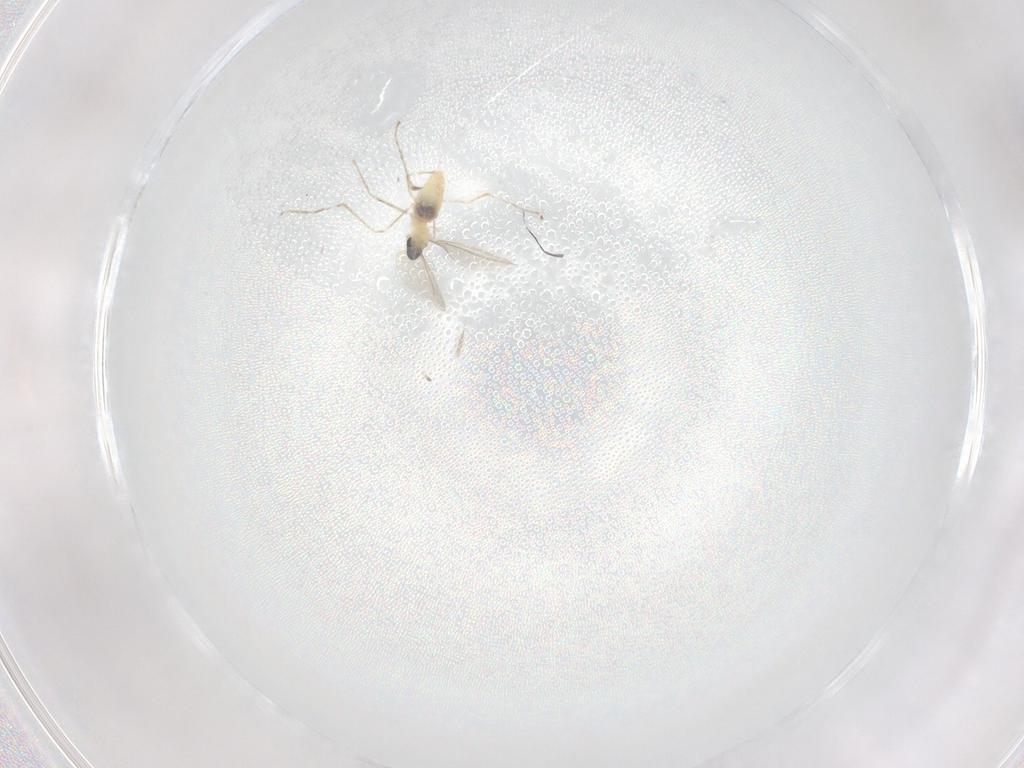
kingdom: Animalia
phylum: Arthropoda
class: Insecta
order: Diptera
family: Cecidomyiidae
